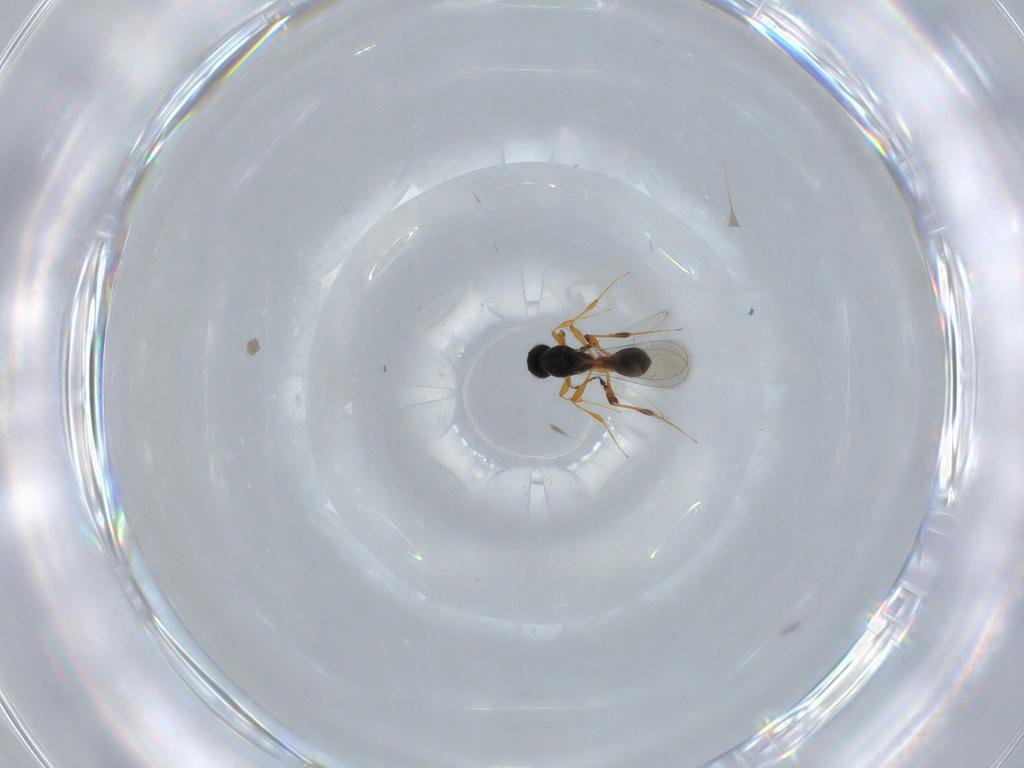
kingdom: Animalia
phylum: Arthropoda
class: Insecta
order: Hymenoptera
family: Platygastridae
